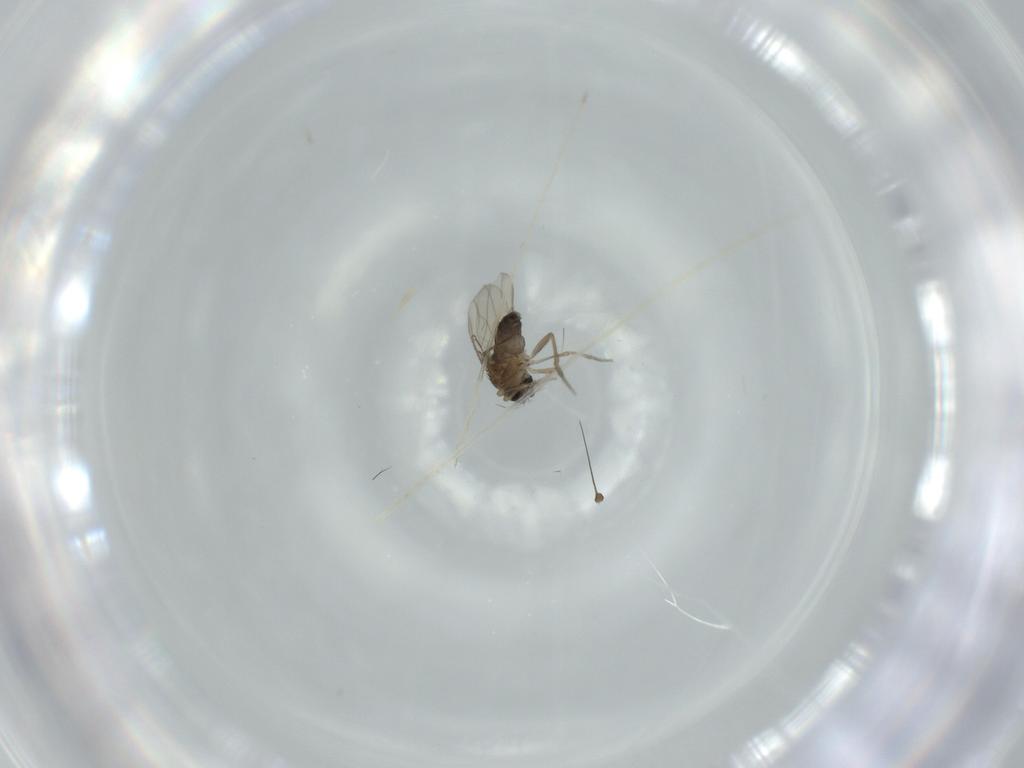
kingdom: Animalia
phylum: Arthropoda
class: Insecta
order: Diptera
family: Phoridae
